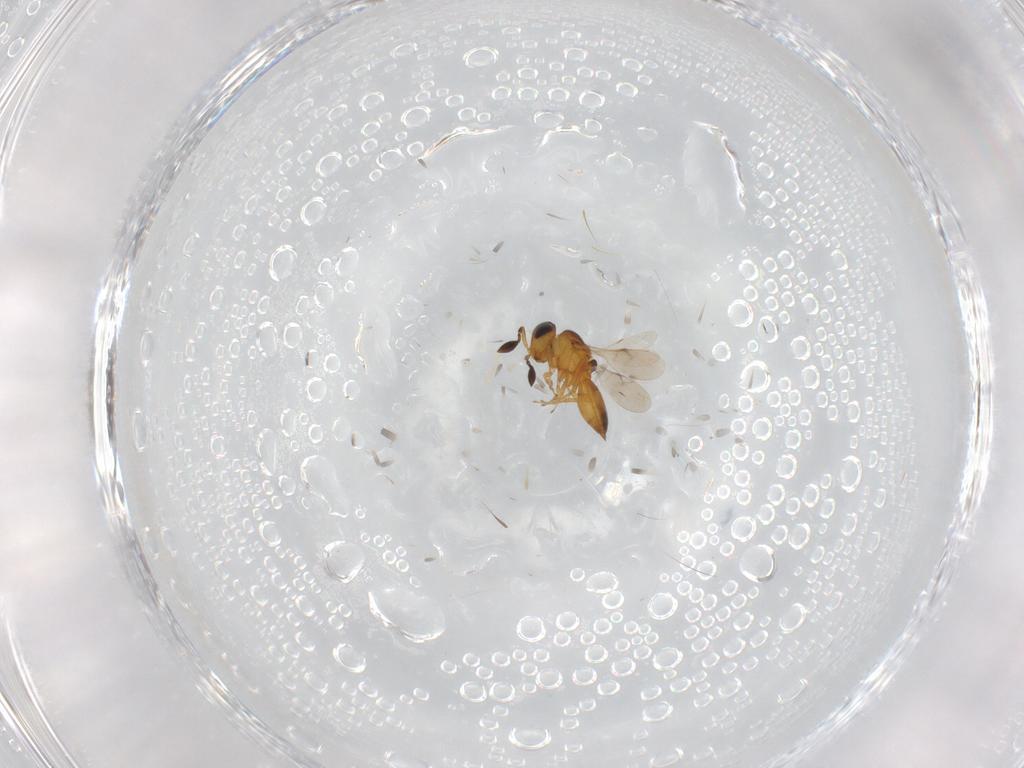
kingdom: Animalia
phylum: Arthropoda
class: Insecta
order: Hymenoptera
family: Scelionidae
